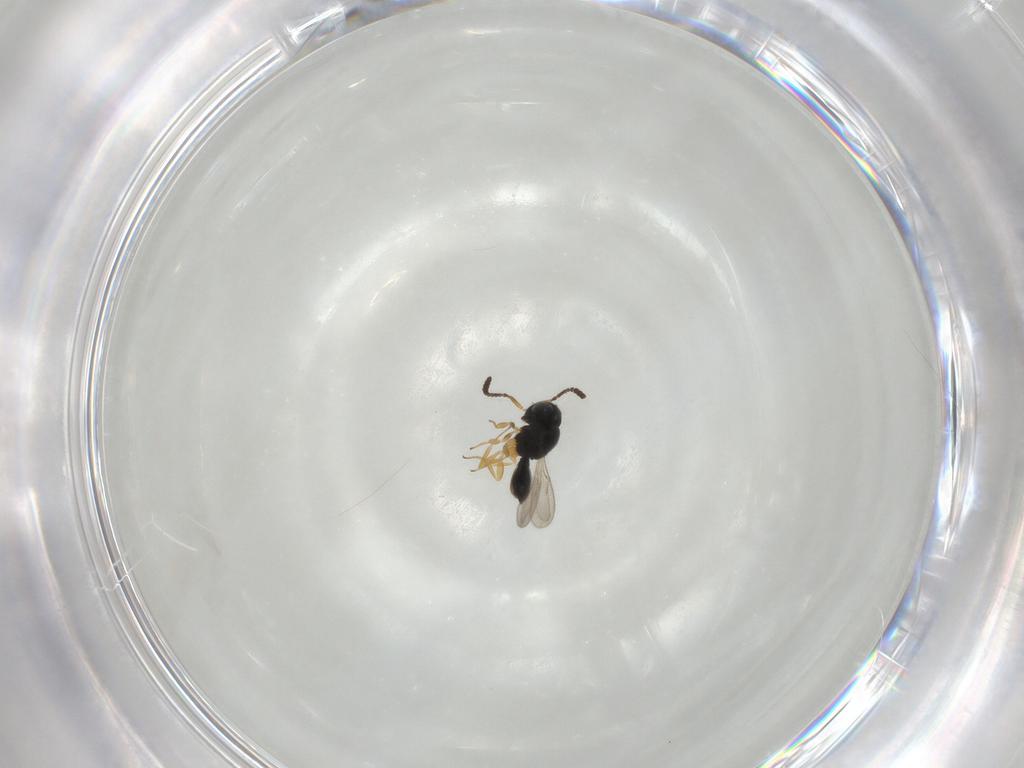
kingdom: Animalia
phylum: Arthropoda
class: Insecta
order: Hymenoptera
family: Scelionidae
